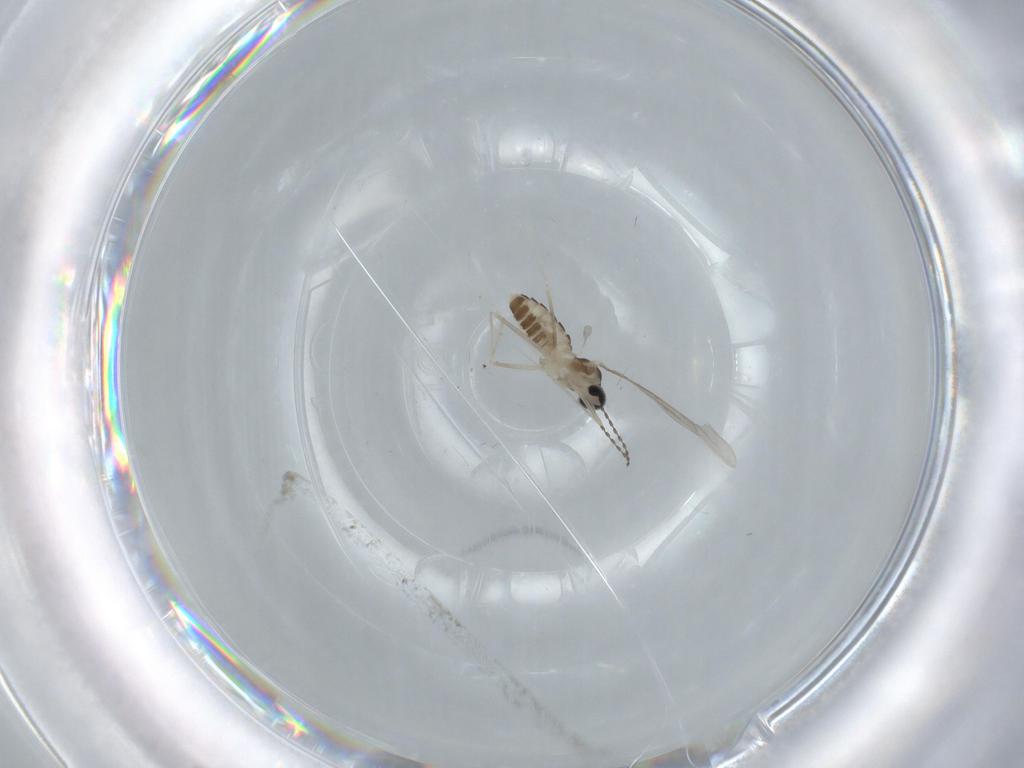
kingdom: Animalia
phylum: Arthropoda
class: Insecta
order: Diptera
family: Cecidomyiidae
